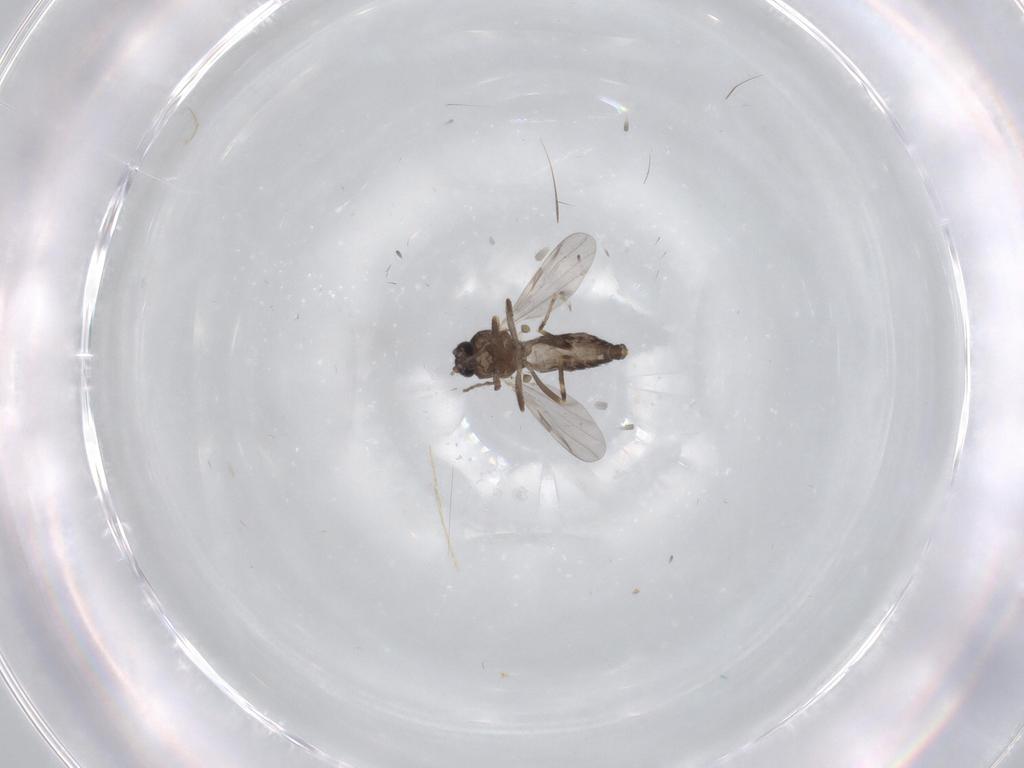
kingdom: Animalia
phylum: Arthropoda
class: Insecta
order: Diptera
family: Ceratopogonidae
